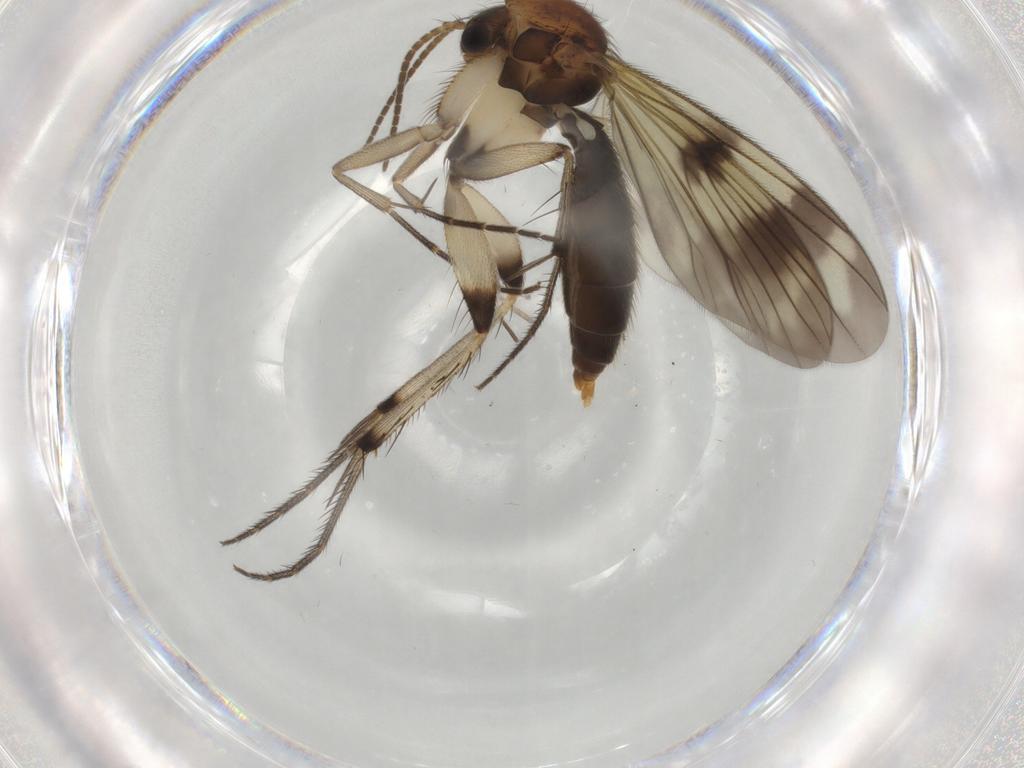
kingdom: Animalia
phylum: Arthropoda
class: Insecta
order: Diptera
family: Mycetophilidae
